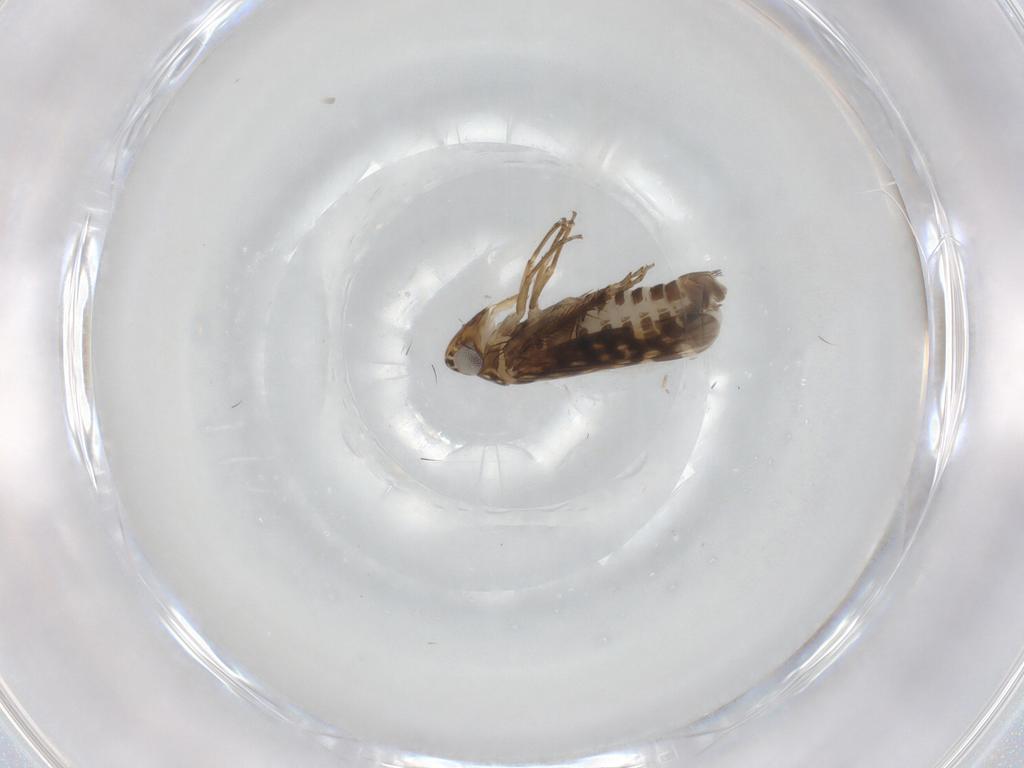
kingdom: Animalia
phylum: Arthropoda
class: Insecta
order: Hemiptera
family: Cicadellidae
